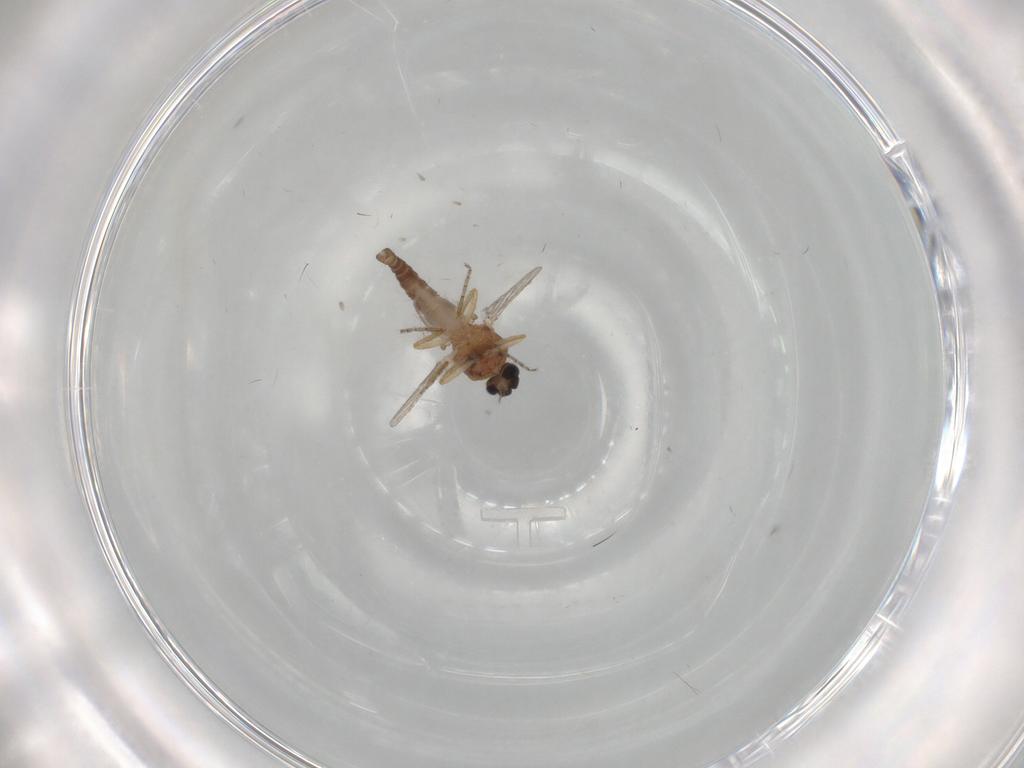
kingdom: Animalia
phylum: Arthropoda
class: Insecta
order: Diptera
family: Ceratopogonidae
